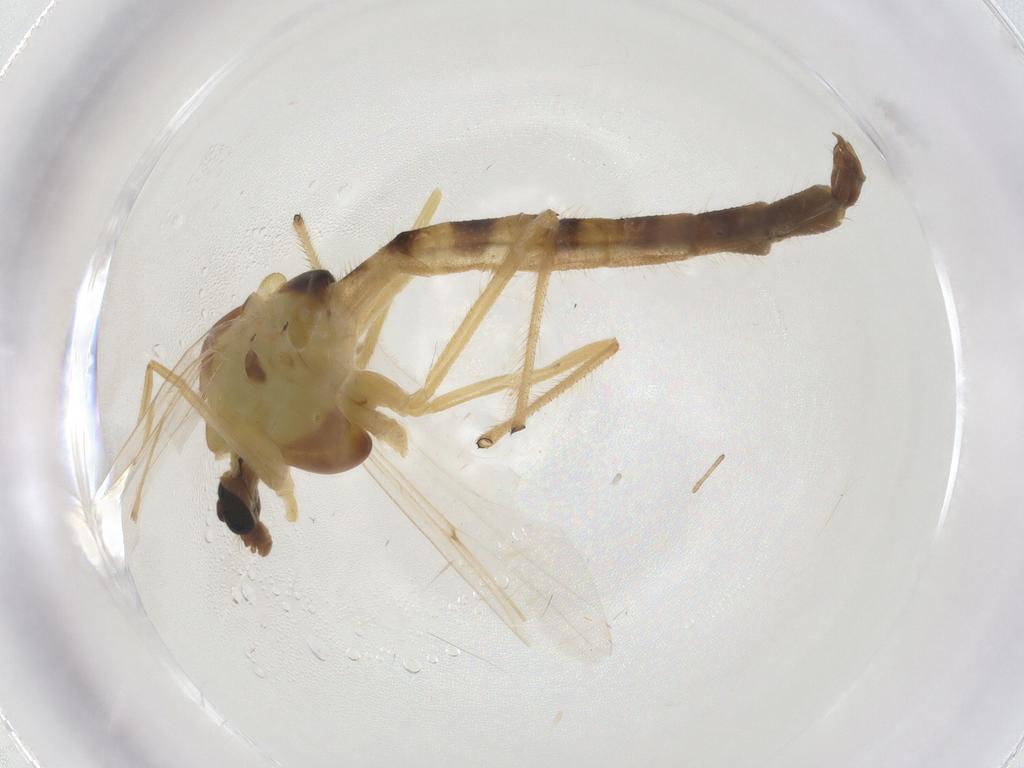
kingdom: Animalia
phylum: Arthropoda
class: Insecta
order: Diptera
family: Chironomidae
